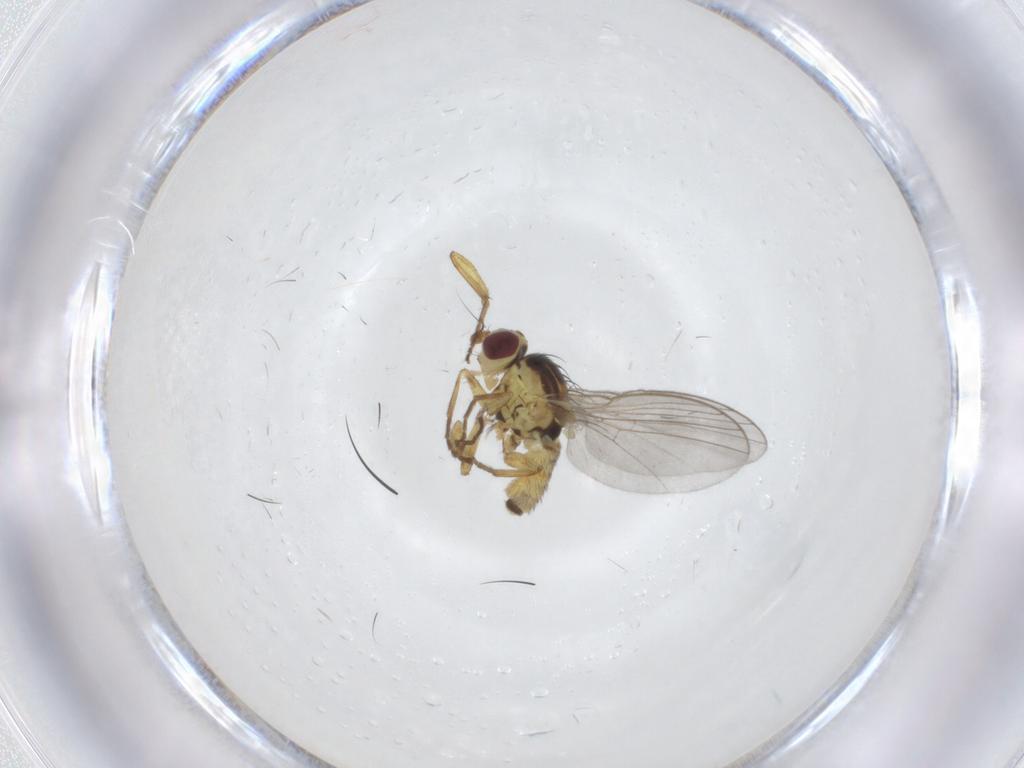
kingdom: Animalia
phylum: Arthropoda
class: Insecta
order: Diptera
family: Agromyzidae
